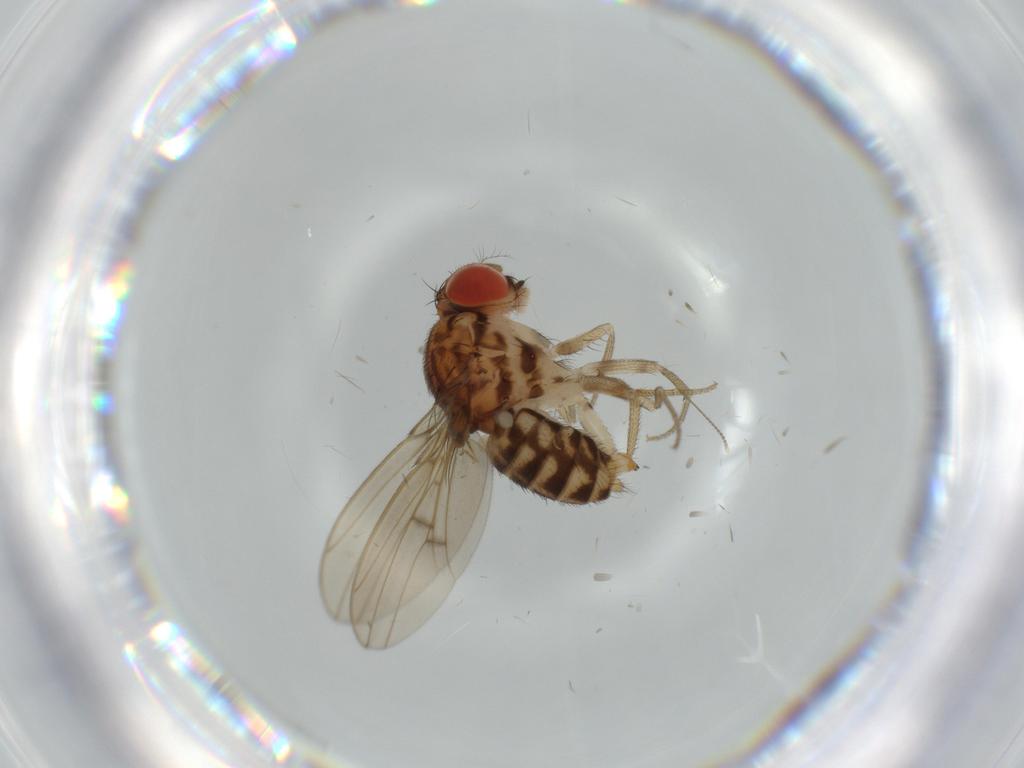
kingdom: Animalia
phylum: Arthropoda
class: Insecta
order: Diptera
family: Drosophilidae
